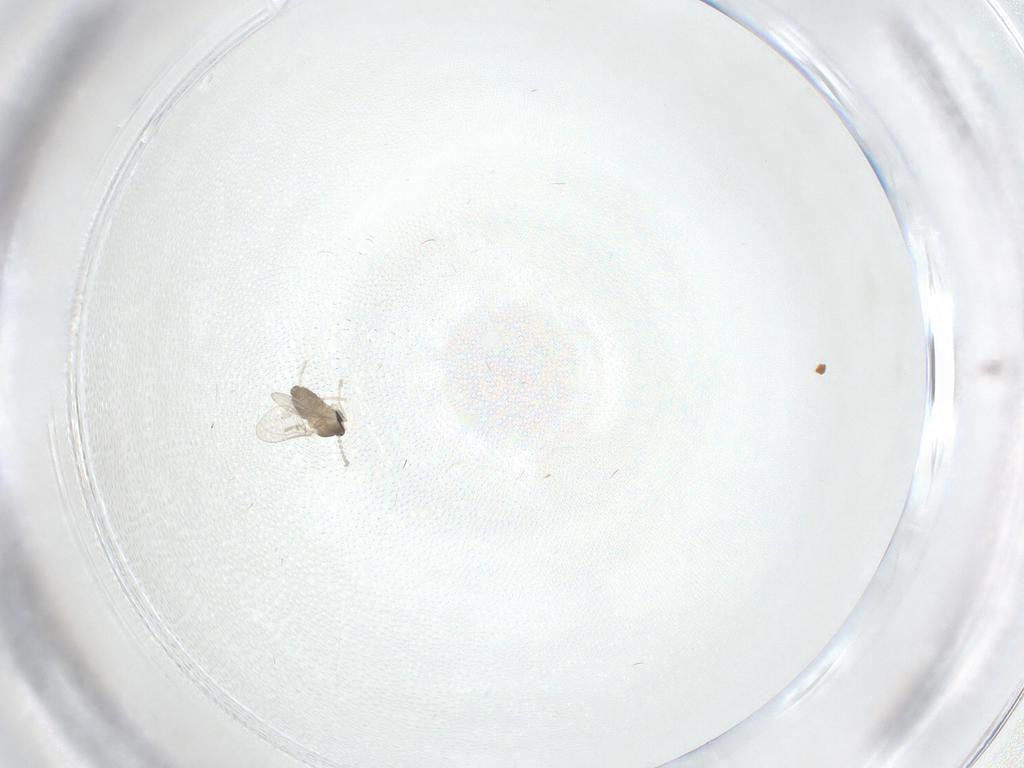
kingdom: Animalia
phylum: Arthropoda
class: Insecta
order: Diptera
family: Cecidomyiidae
